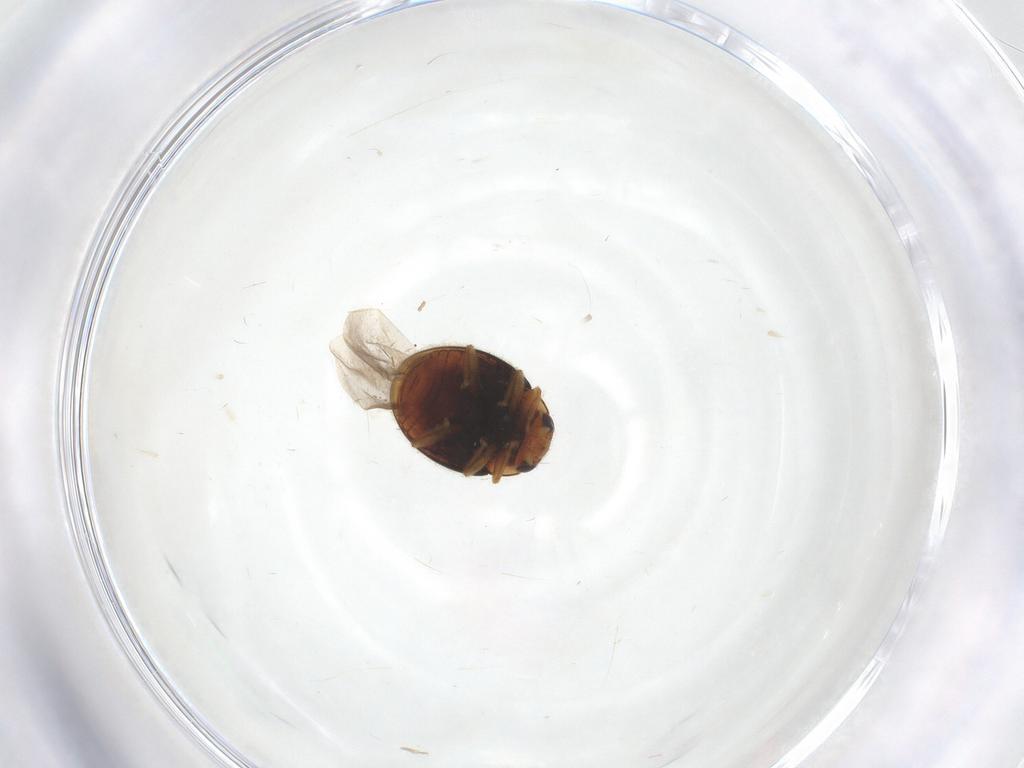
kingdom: Animalia
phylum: Arthropoda
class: Insecta
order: Coleoptera
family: Coccinellidae
